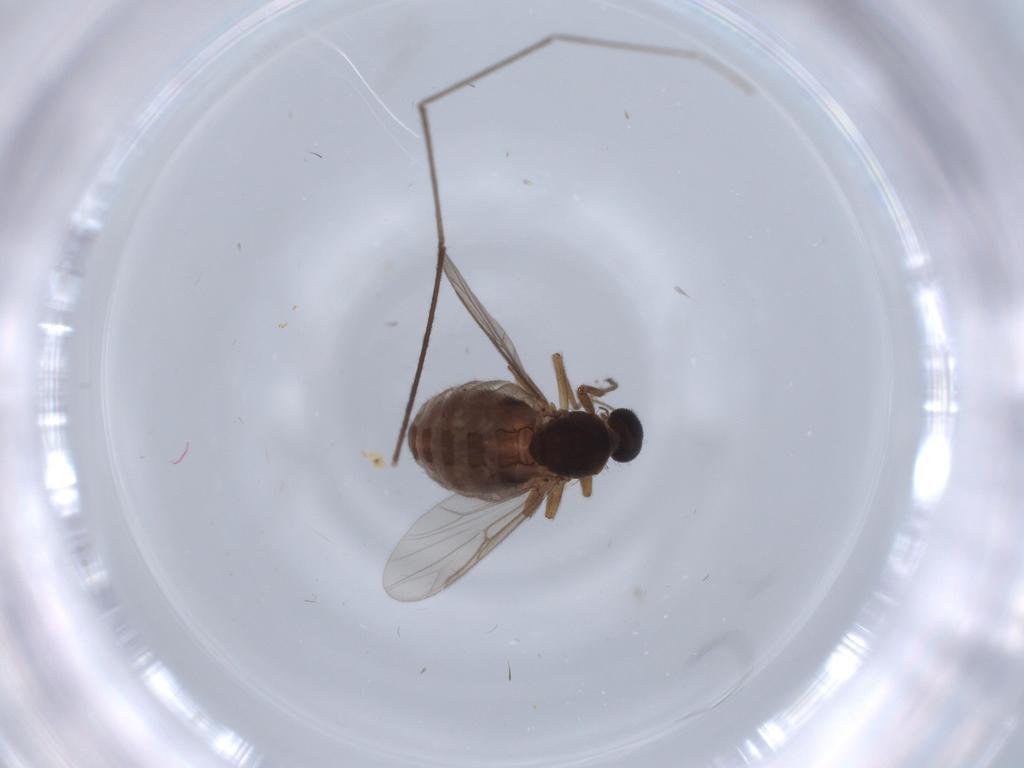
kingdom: Animalia
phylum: Arthropoda
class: Insecta
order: Diptera
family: Ceratopogonidae
